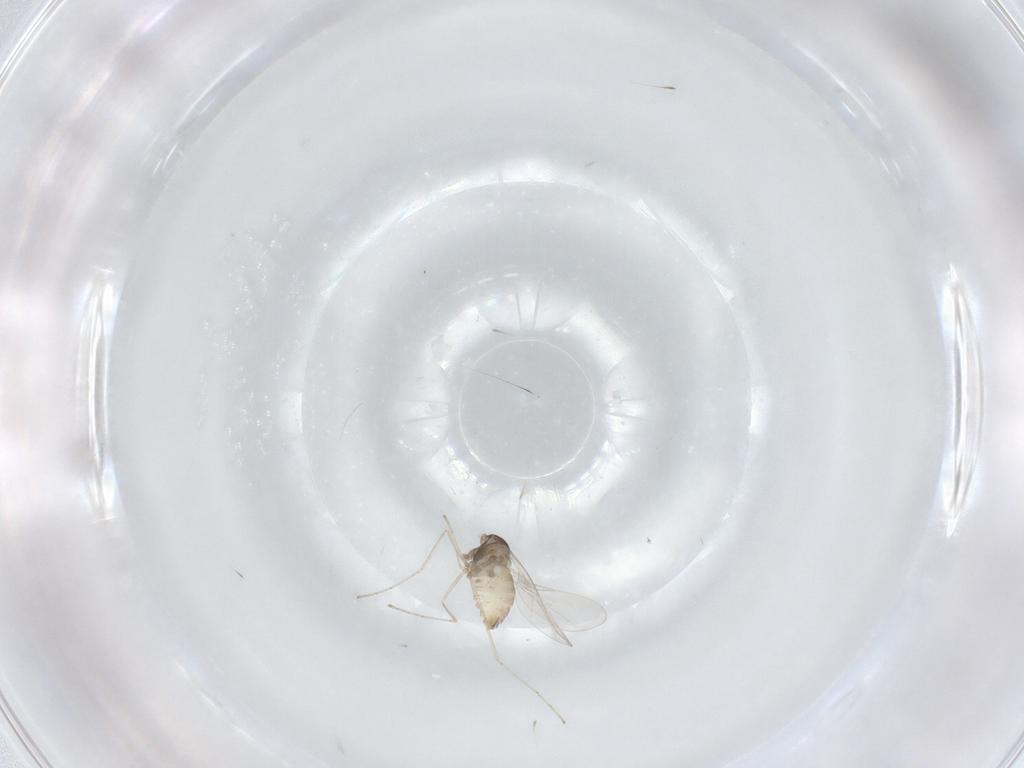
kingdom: Animalia
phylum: Arthropoda
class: Insecta
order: Diptera
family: Cecidomyiidae
